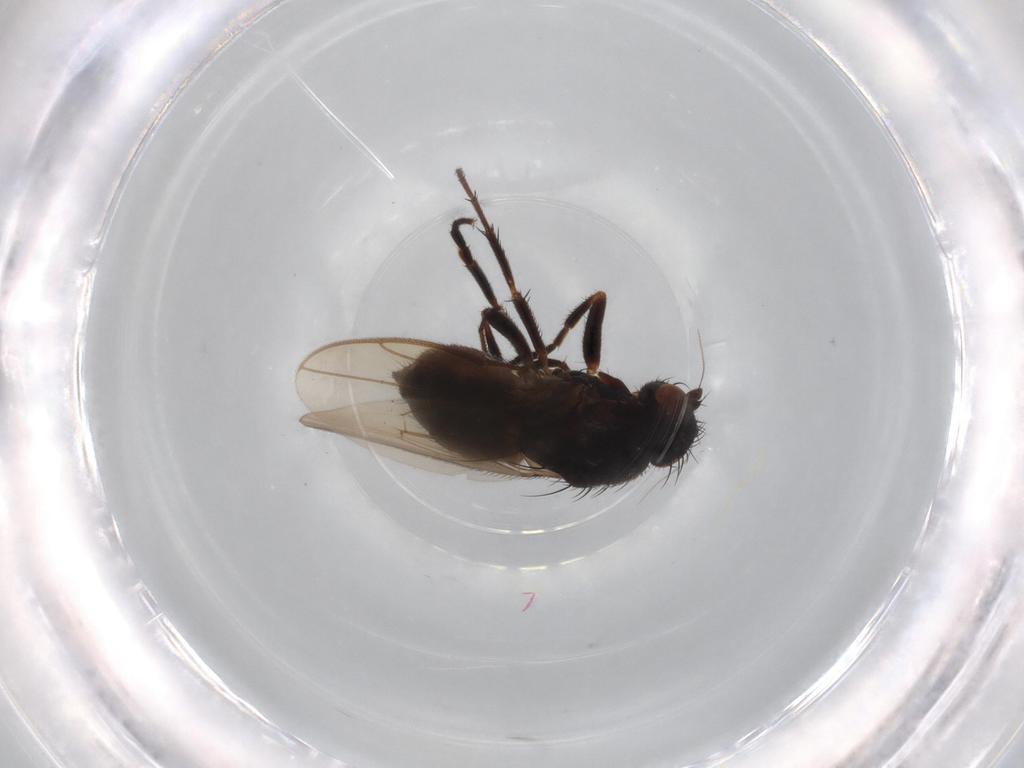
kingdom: Animalia
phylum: Arthropoda
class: Insecta
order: Diptera
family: Sphaeroceridae
